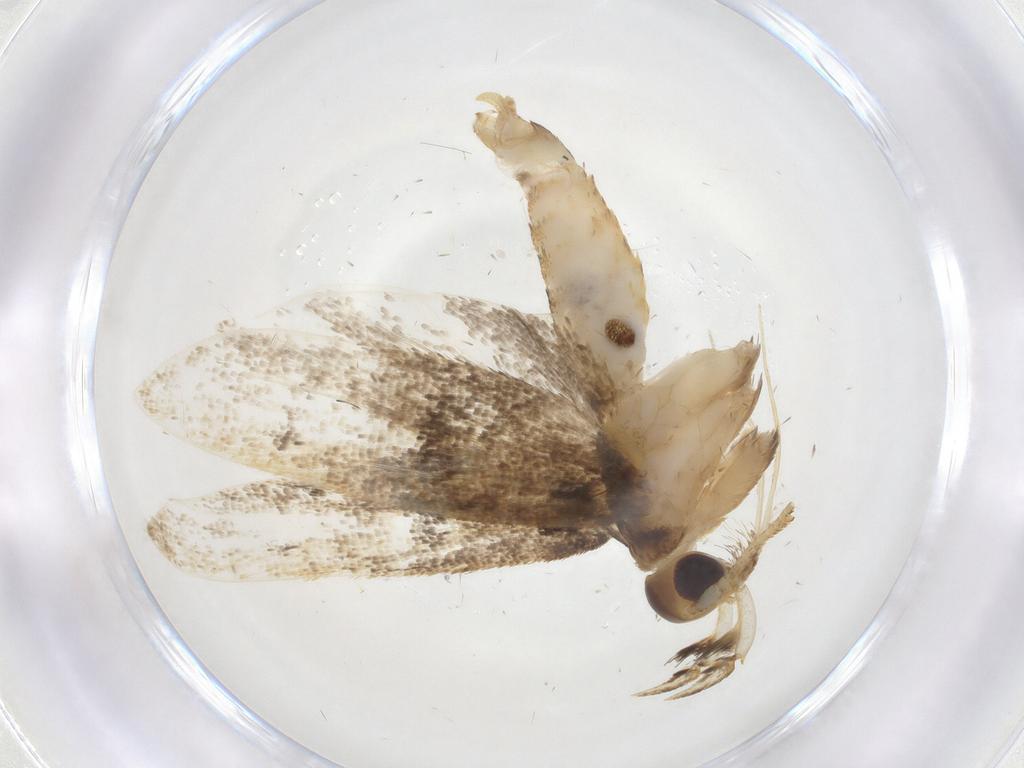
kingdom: Animalia
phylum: Arthropoda
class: Insecta
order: Lepidoptera
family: Lecithoceridae
